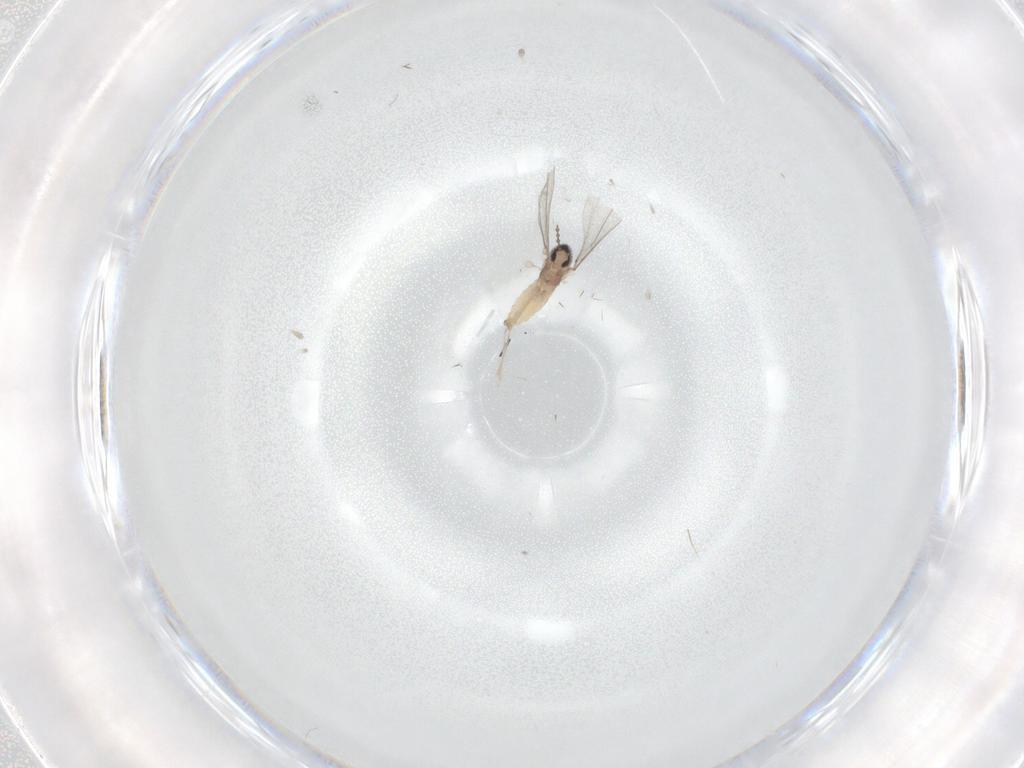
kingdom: Animalia
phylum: Arthropoda
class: Insecta
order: Diptera
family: Cecidomyiidae
